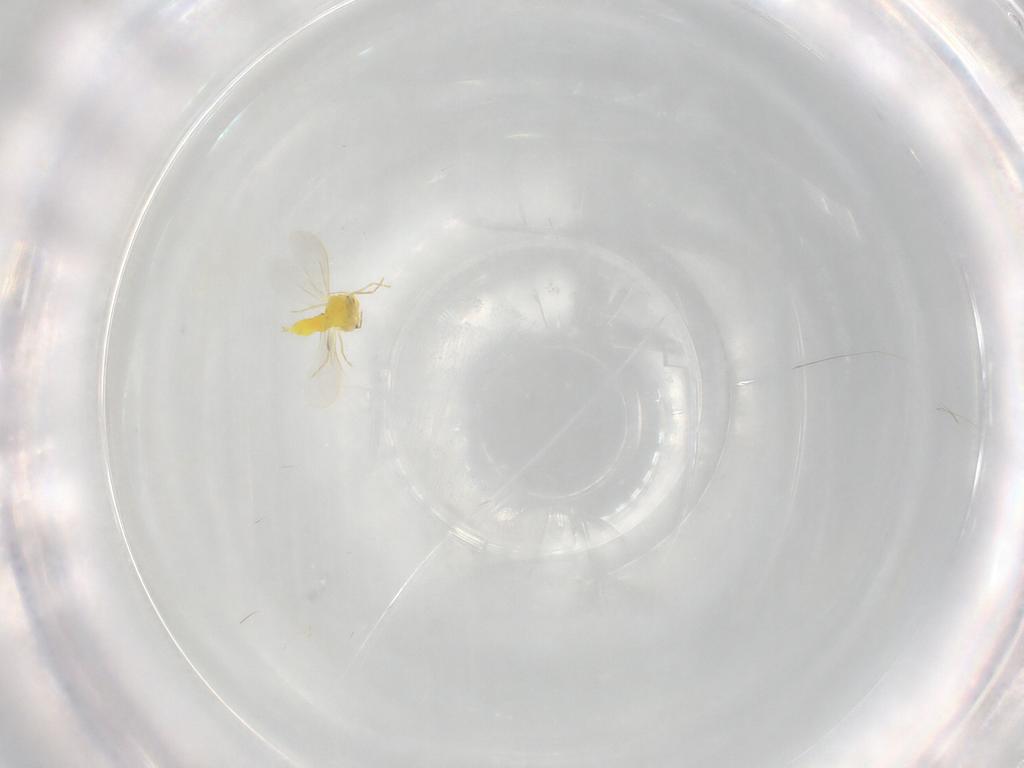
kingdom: Animalia
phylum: Arthropoda
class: Insecta
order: Hemiptera
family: Aleyrodidae
